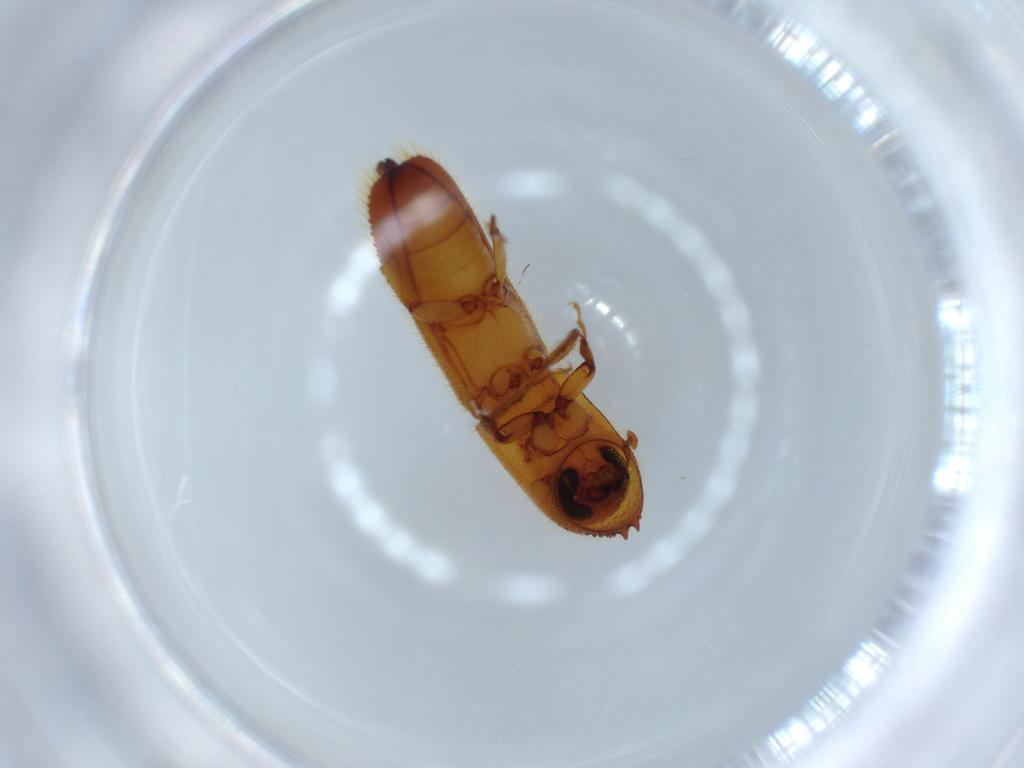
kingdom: Animalia
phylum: Arthropoda
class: Insecta
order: Coleoptera
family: Curculionidae
